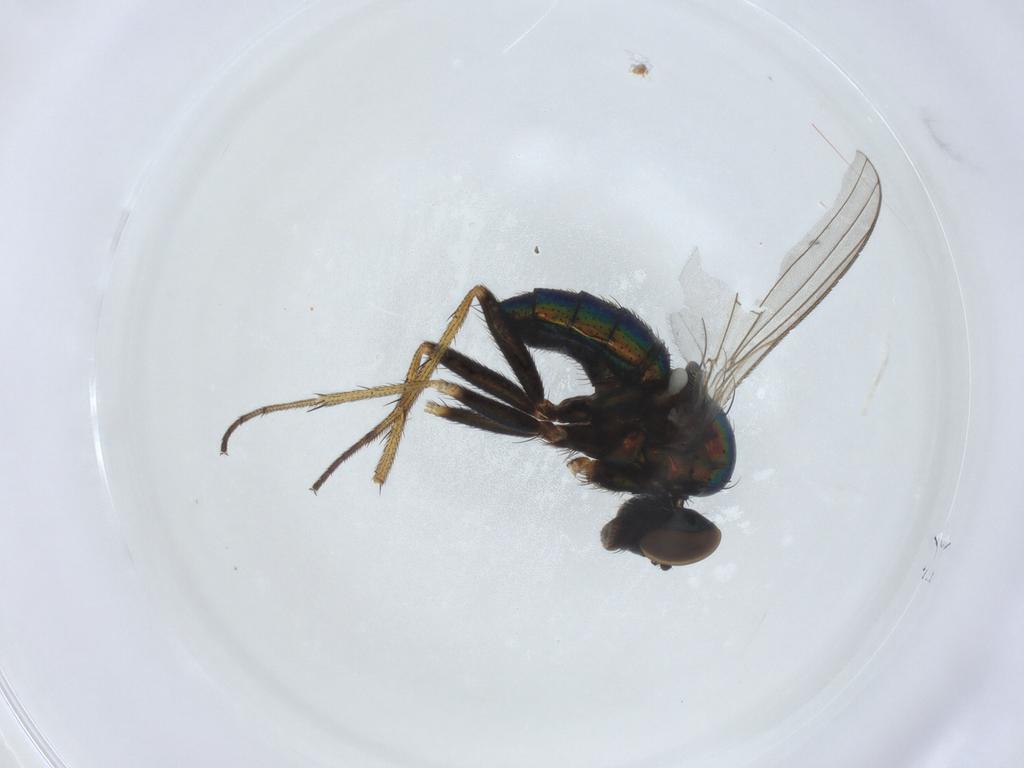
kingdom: Animalia
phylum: Arthropoda
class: Insecta
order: Diptera
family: Dolichopodidae
